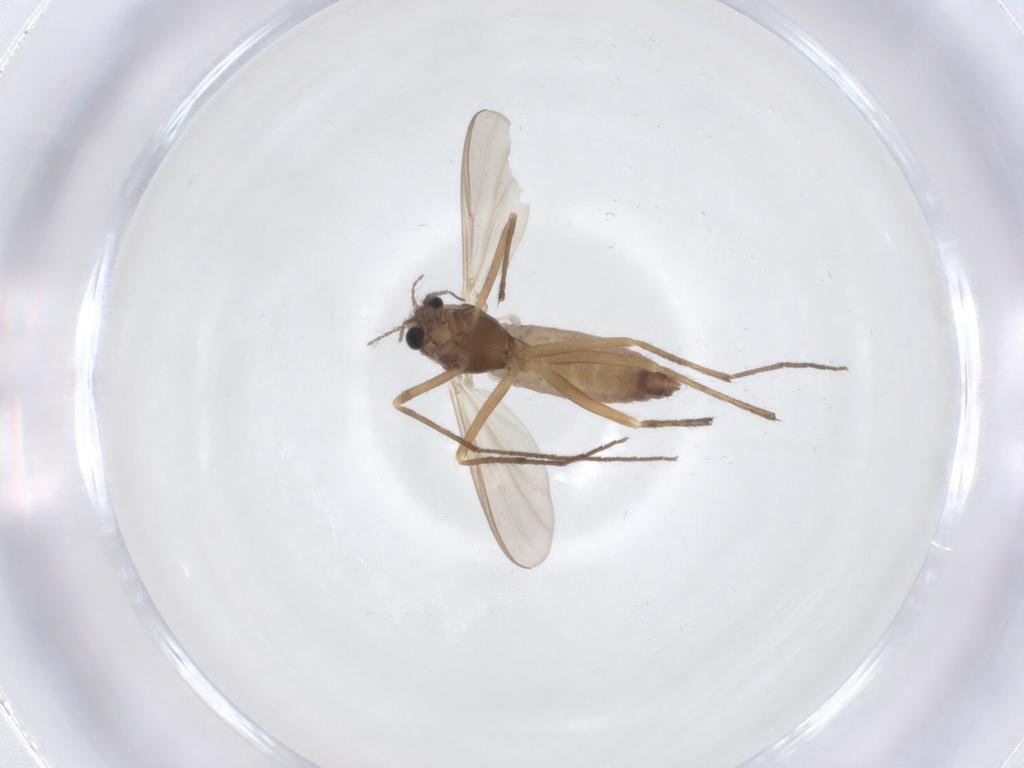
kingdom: Animalia
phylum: Arthropoda
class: Insecta
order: Diptera
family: Chironomidae
